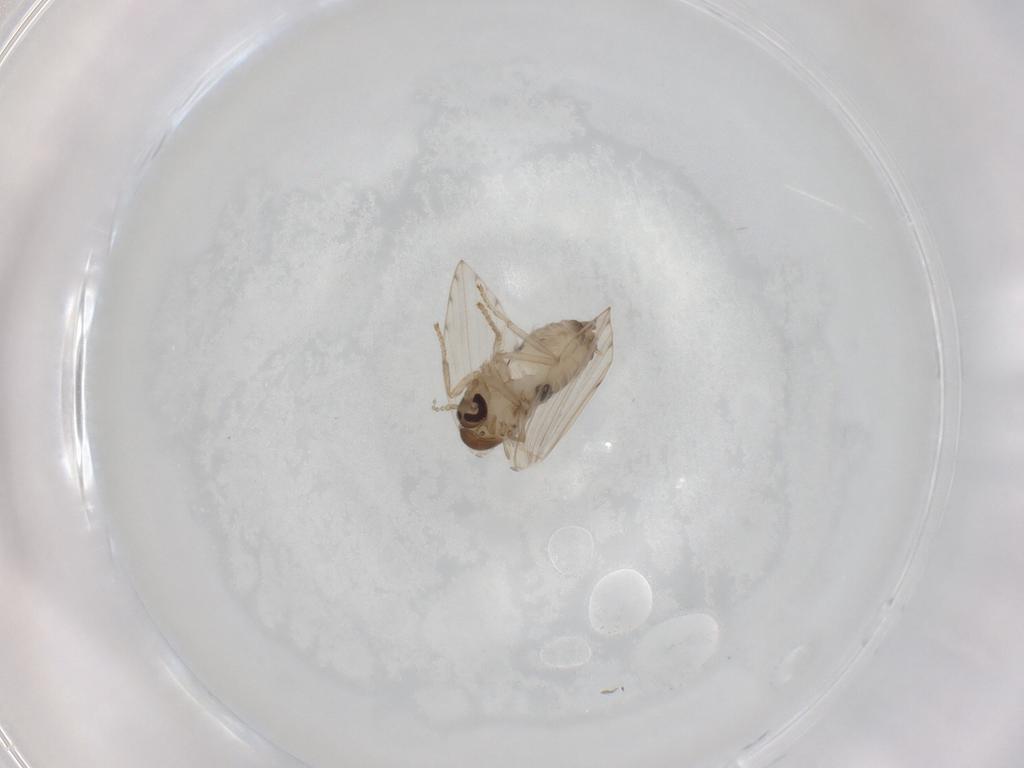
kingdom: Animalia
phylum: Arthropoda
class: Insecta
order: Diptera
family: Psychodidae
